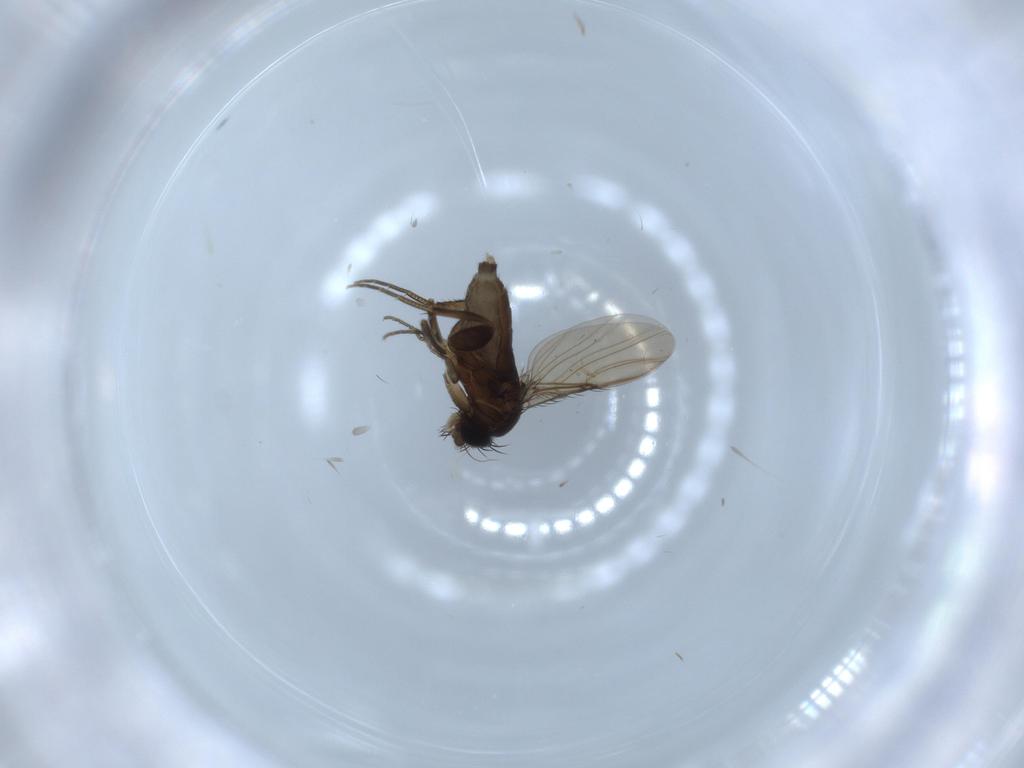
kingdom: Animalia
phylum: Arthropoda
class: Insecta
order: Diptera
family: Phoridae
